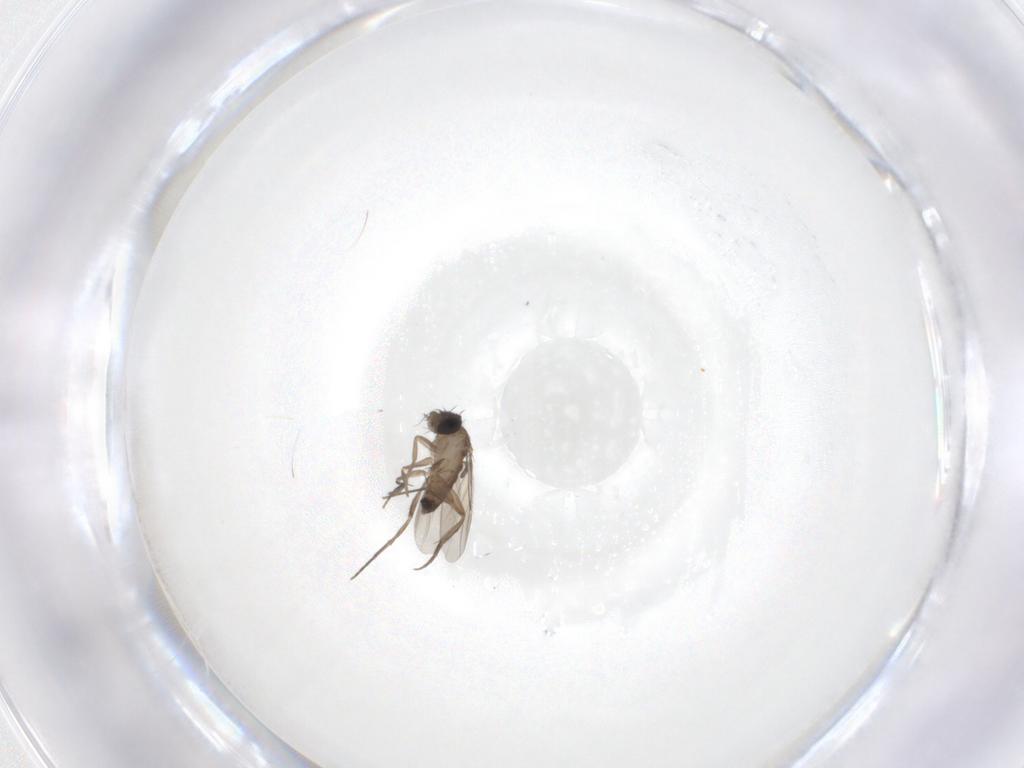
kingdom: Animalia
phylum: Arthropoda
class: Insecta
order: Diptera
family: Phoridae
